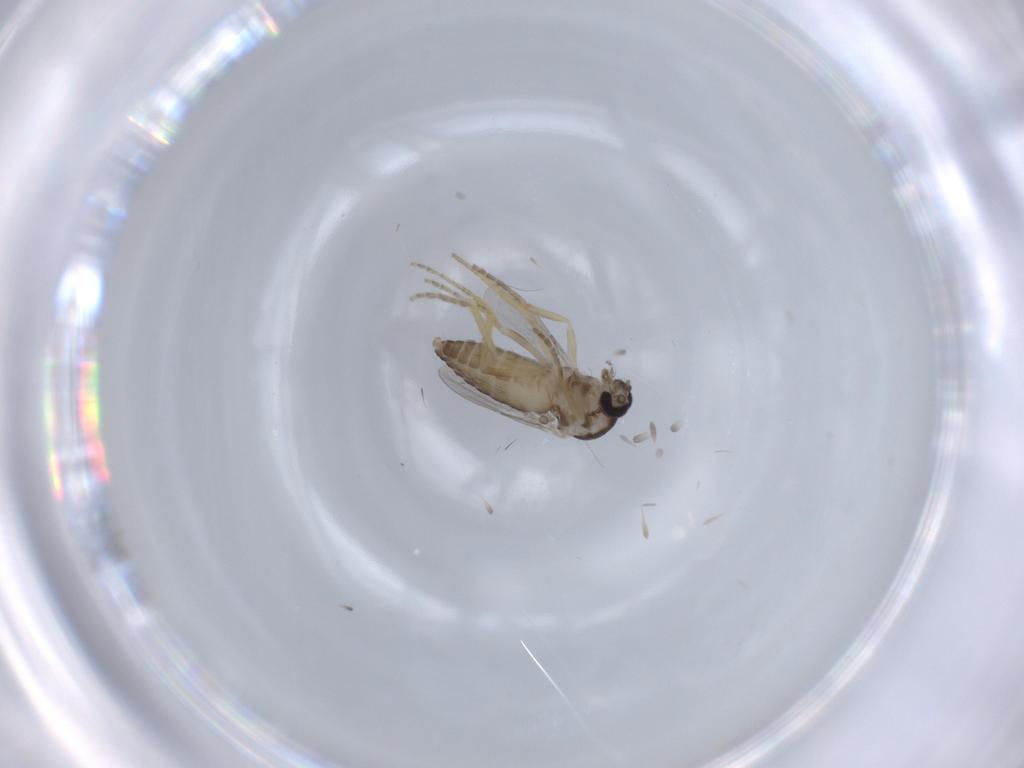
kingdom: Animalia
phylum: Arthropoda
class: Insecta
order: Diptera
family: Ceratopogonidae
